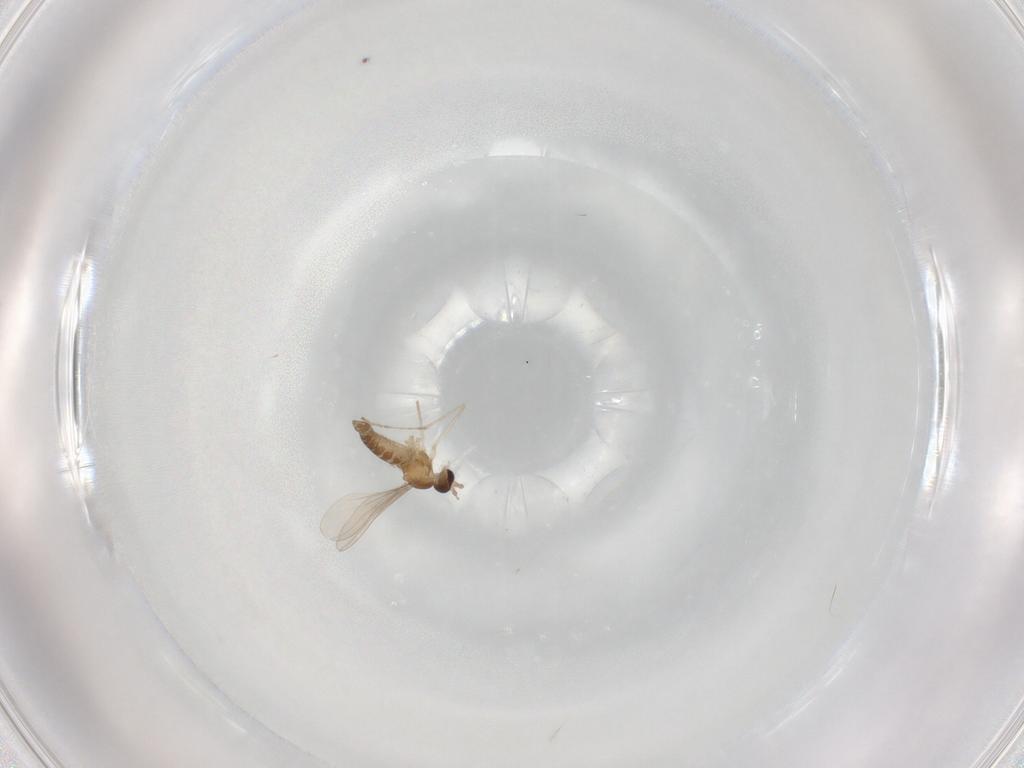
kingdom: Animalia
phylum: Arthropoda
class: Insecta
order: Diptera
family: Cecidomyiidae
